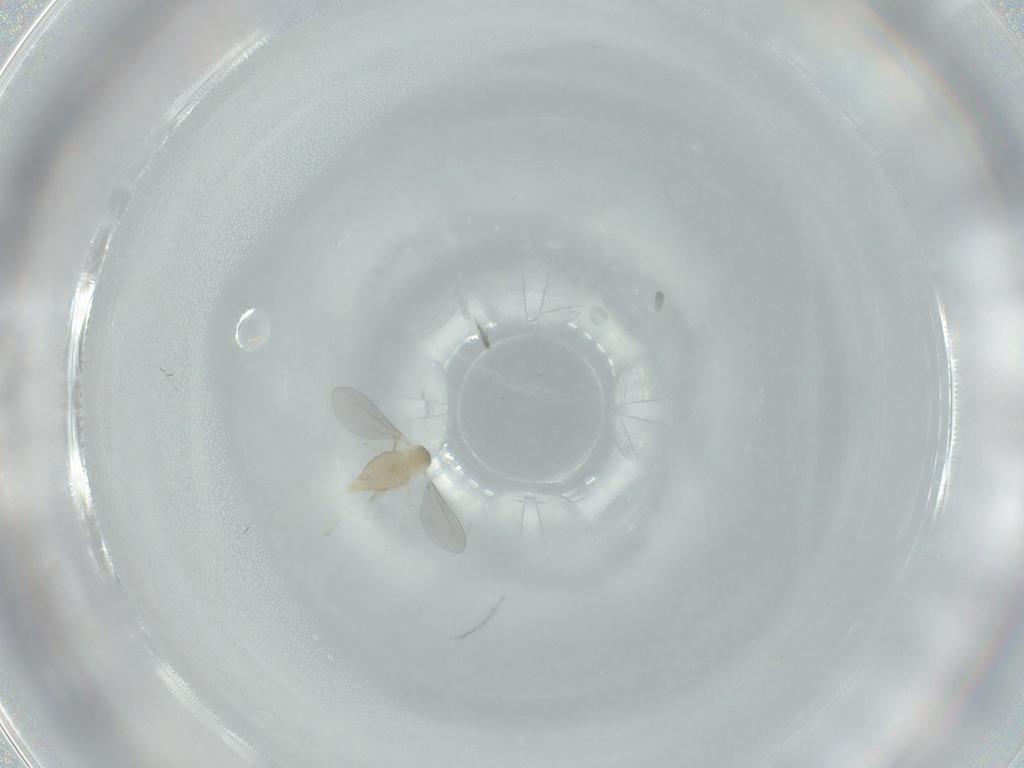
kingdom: Animalia
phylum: Arthropoda
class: Insecta
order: Diptera
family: Cecidomyiidae
